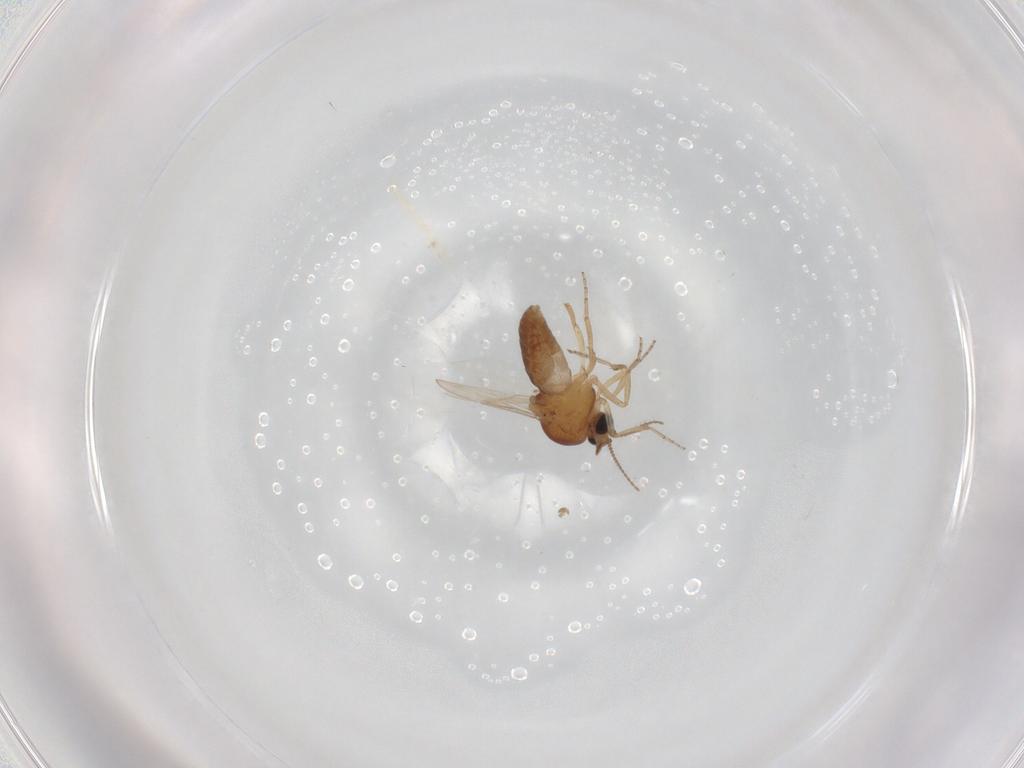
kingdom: Animalia
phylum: Arthropoda
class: Insecta
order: Diptera
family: Ceratopogonidae
